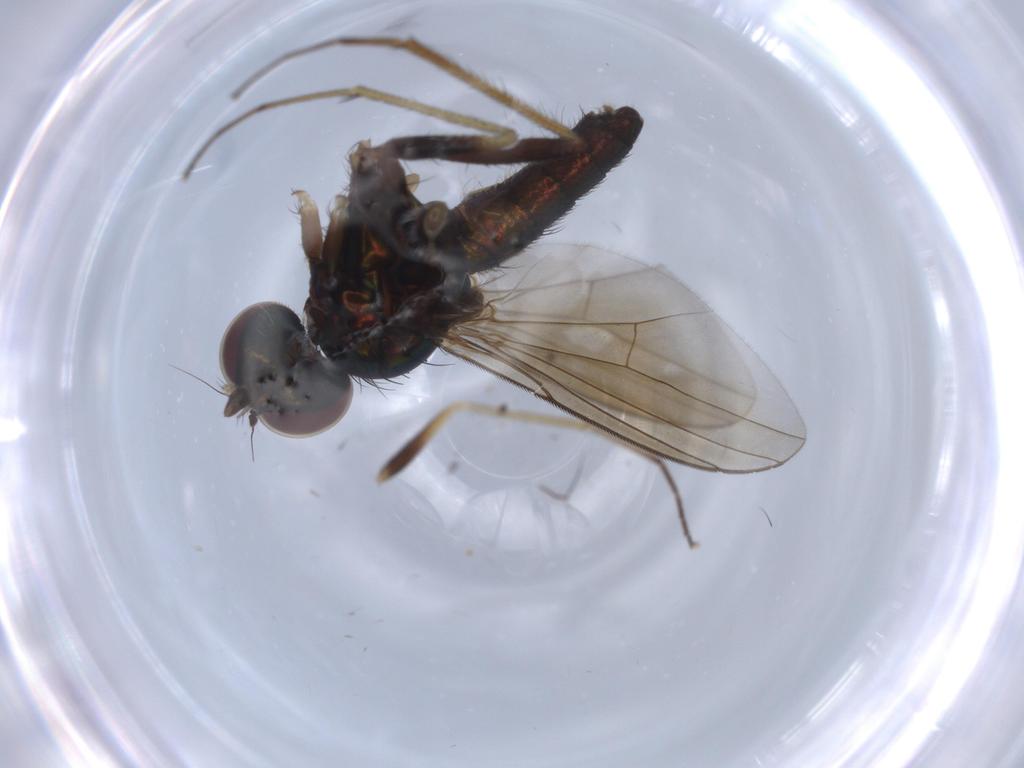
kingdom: Animalia
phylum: Arthropoda
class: Insecta
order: Diptera
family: Dolichopodidae
